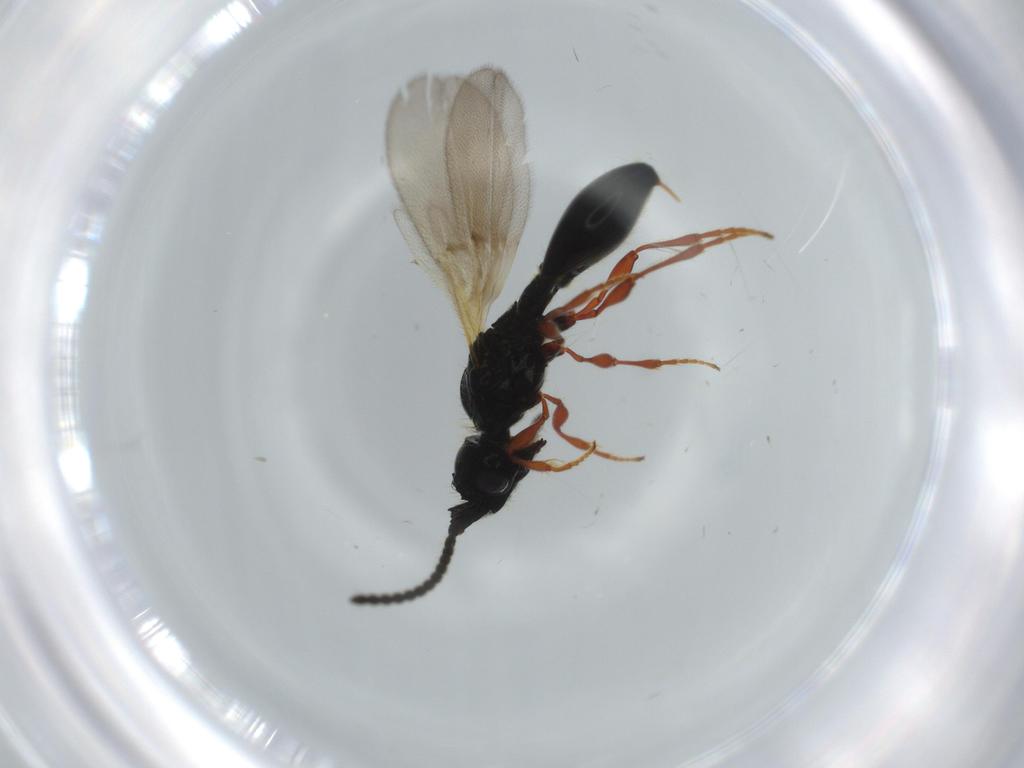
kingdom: Animalia
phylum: Arthropoda
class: Insecta
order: Hymenoptera
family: Diapriidae
